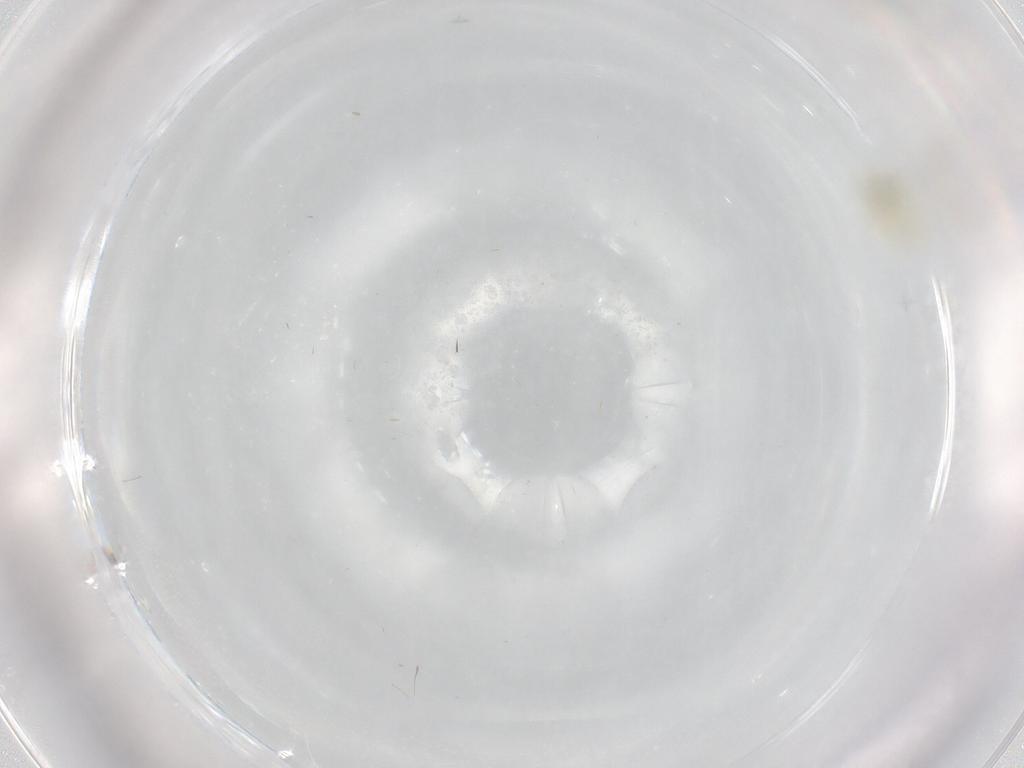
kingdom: Animalia
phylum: Arthropoda
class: Insecta
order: Hemiptera
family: Aleyrodidae
